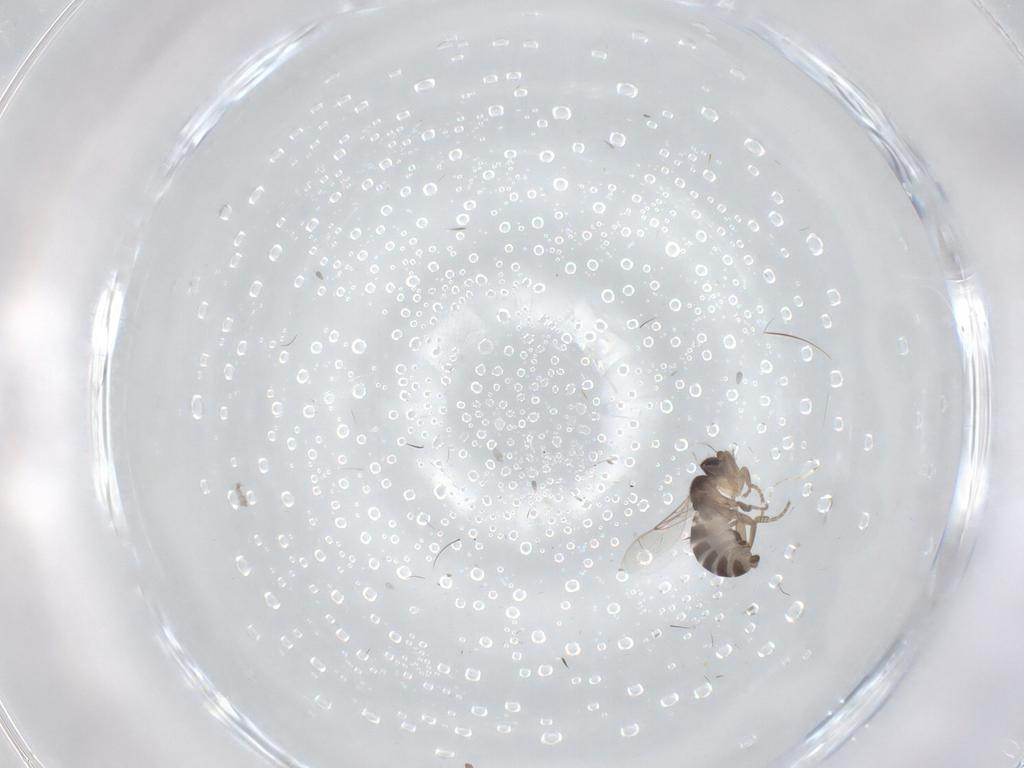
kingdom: Animalia
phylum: Arthropoda
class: Insecta
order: Diptera
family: Phoridae
